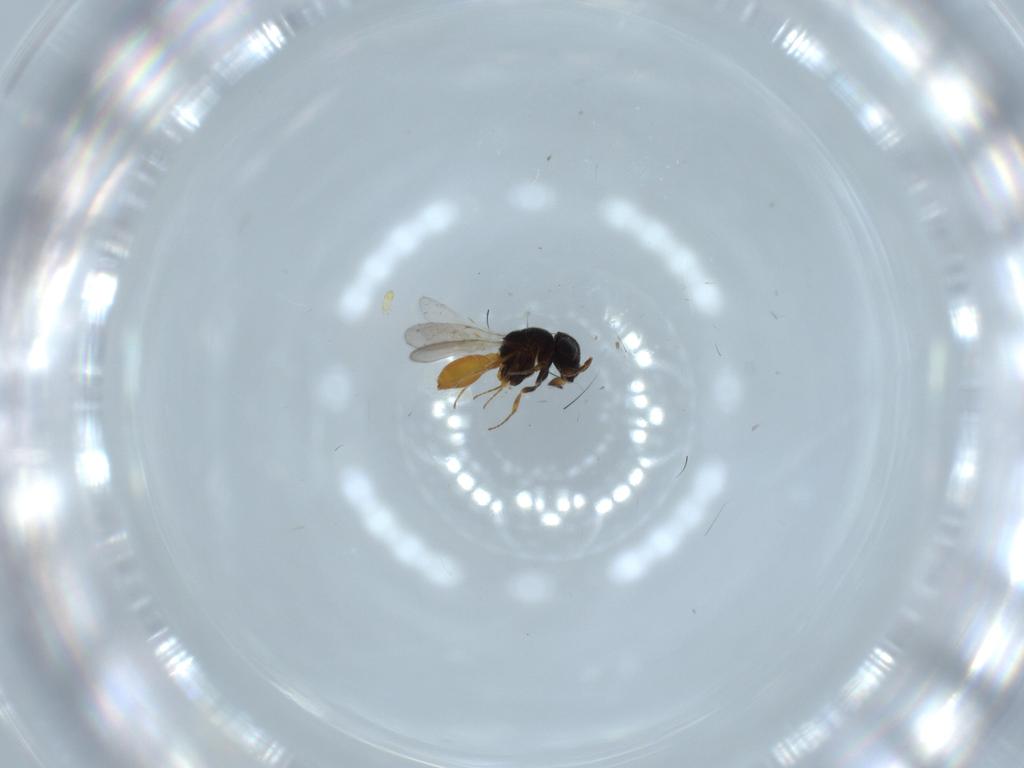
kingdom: Animalia
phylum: Arthropoda
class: Insecta
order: Hymenoptera
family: Scelionidae
